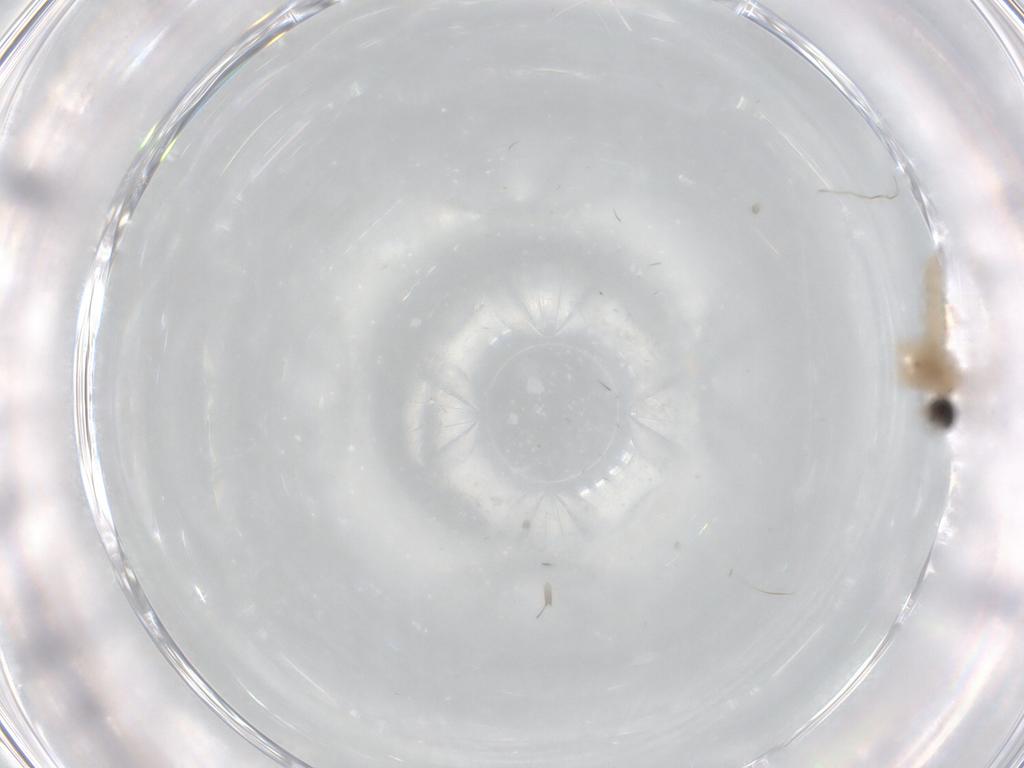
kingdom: Animalia
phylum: Arthropoda
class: Insecta
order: Diptera
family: Cecidomyiidae
